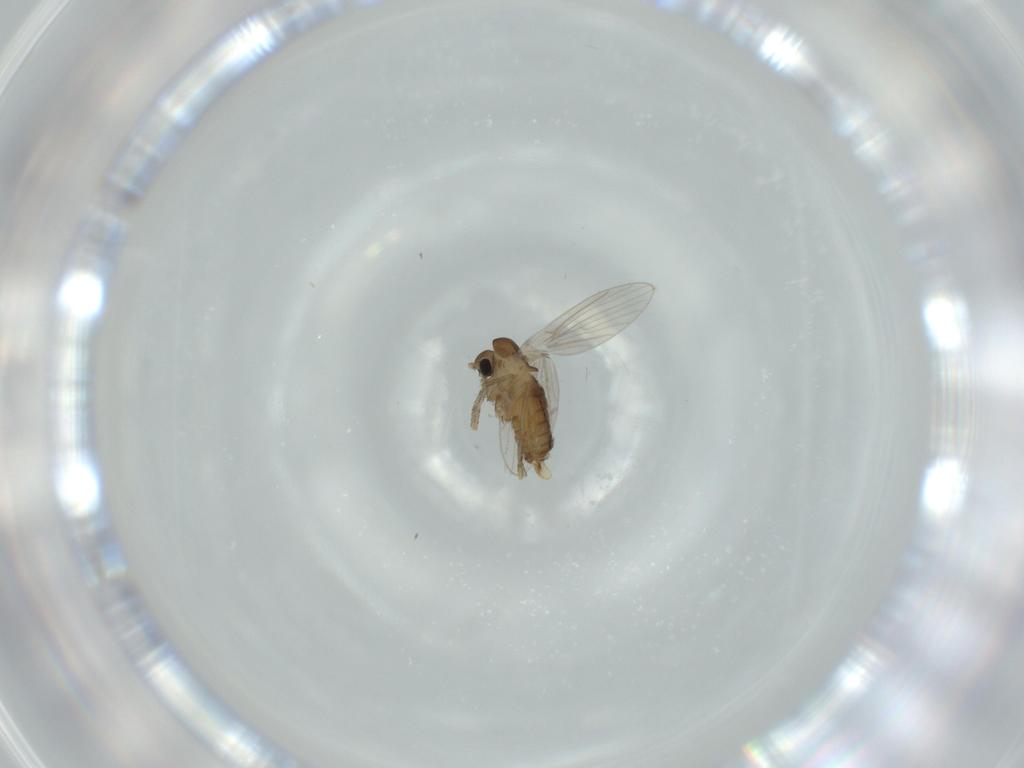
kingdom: Animalia
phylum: Arthropoda
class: Insecta
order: Diptera
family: Psychodidae
